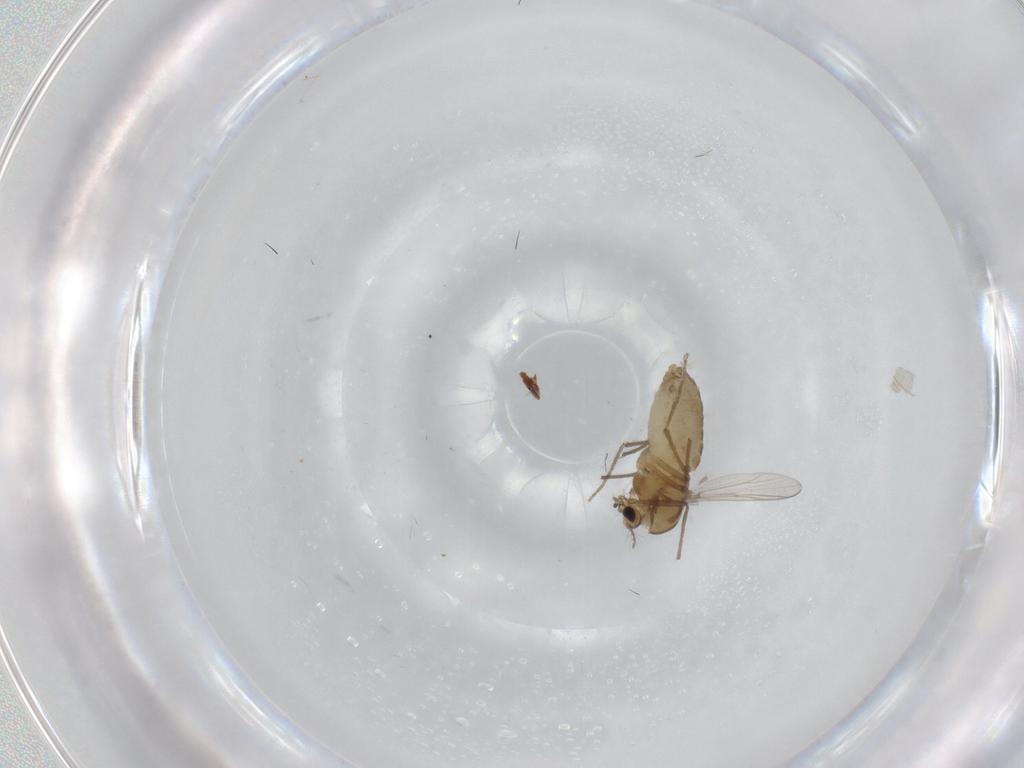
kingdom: Animalia
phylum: Arthropoda
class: Insecta
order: Diptera
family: Chironomidae
